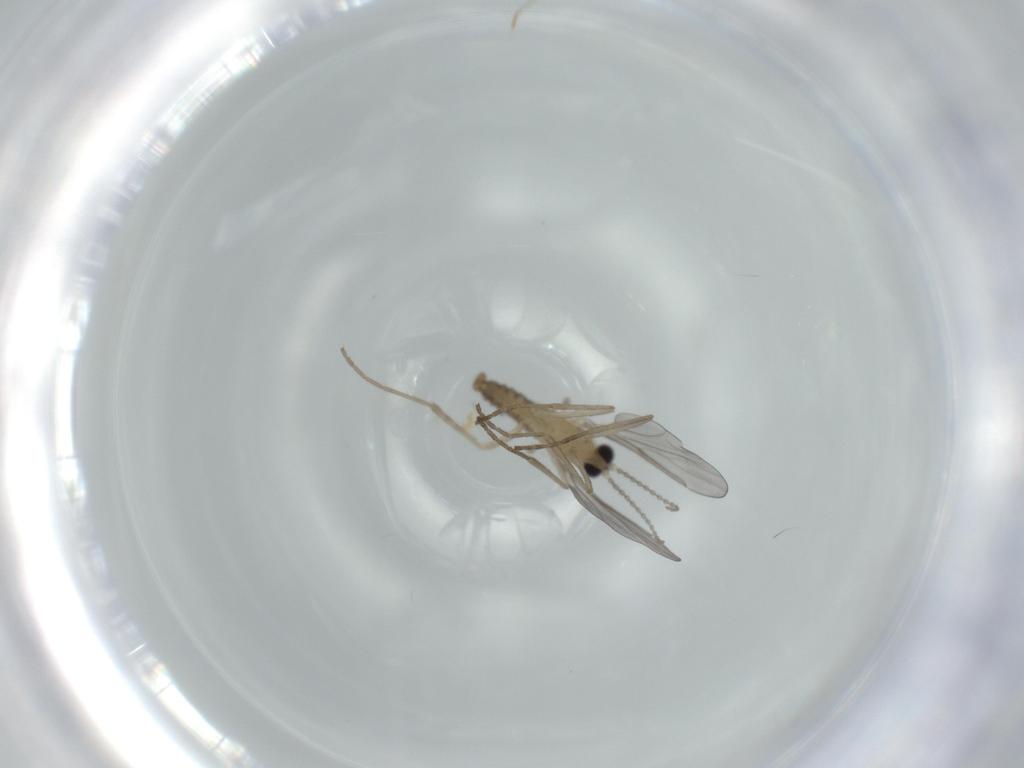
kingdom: Animalia
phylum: Arthropoda
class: Insecta
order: Diptera
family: Cecidomyiidae
